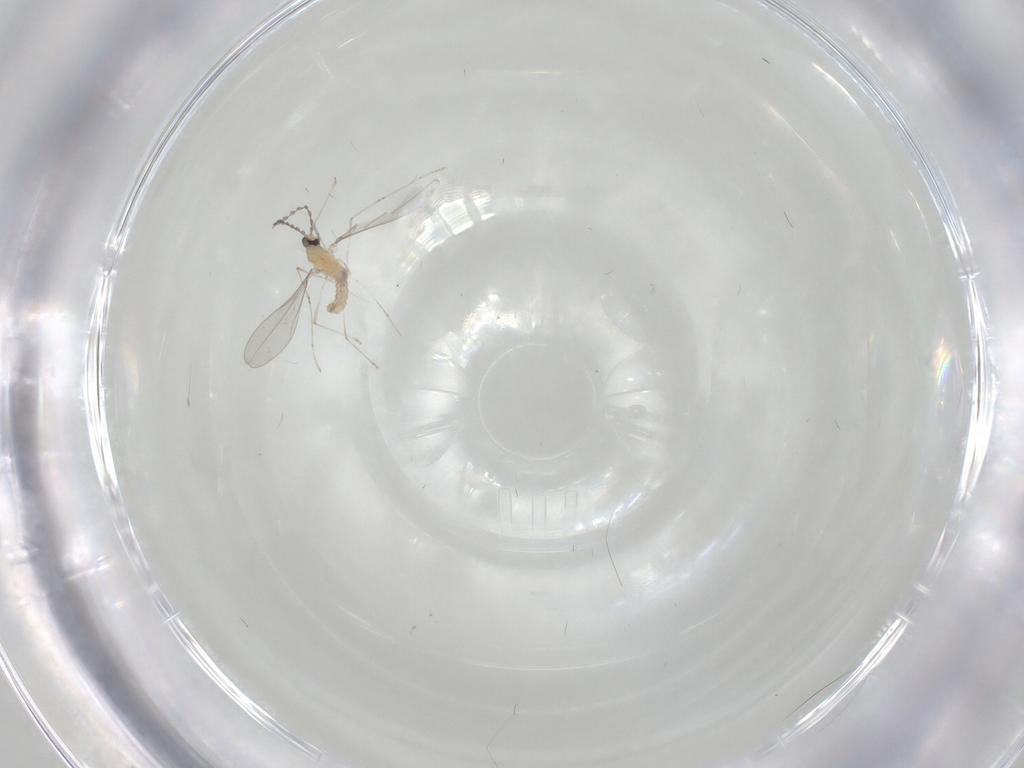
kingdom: Animalia
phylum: Arthropoda
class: Insecta
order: Diptera
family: Cecidomyiidae
